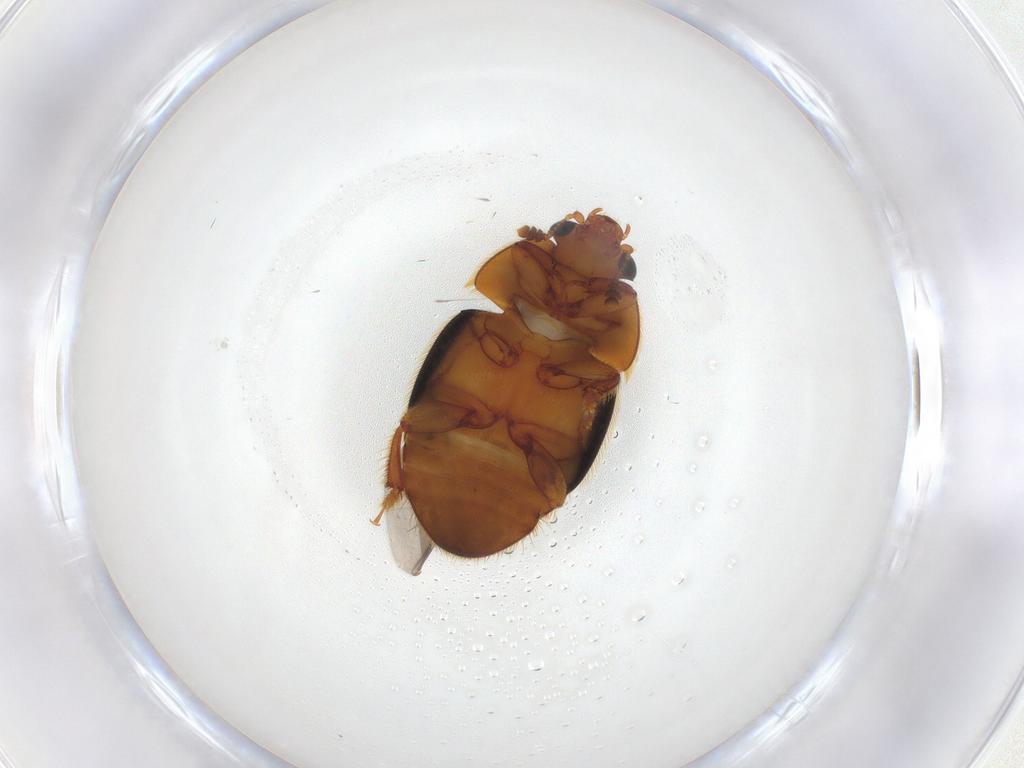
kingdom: Animalia
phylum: Arthropoda
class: Insecta
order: Coleoptera
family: Nitidulidae
